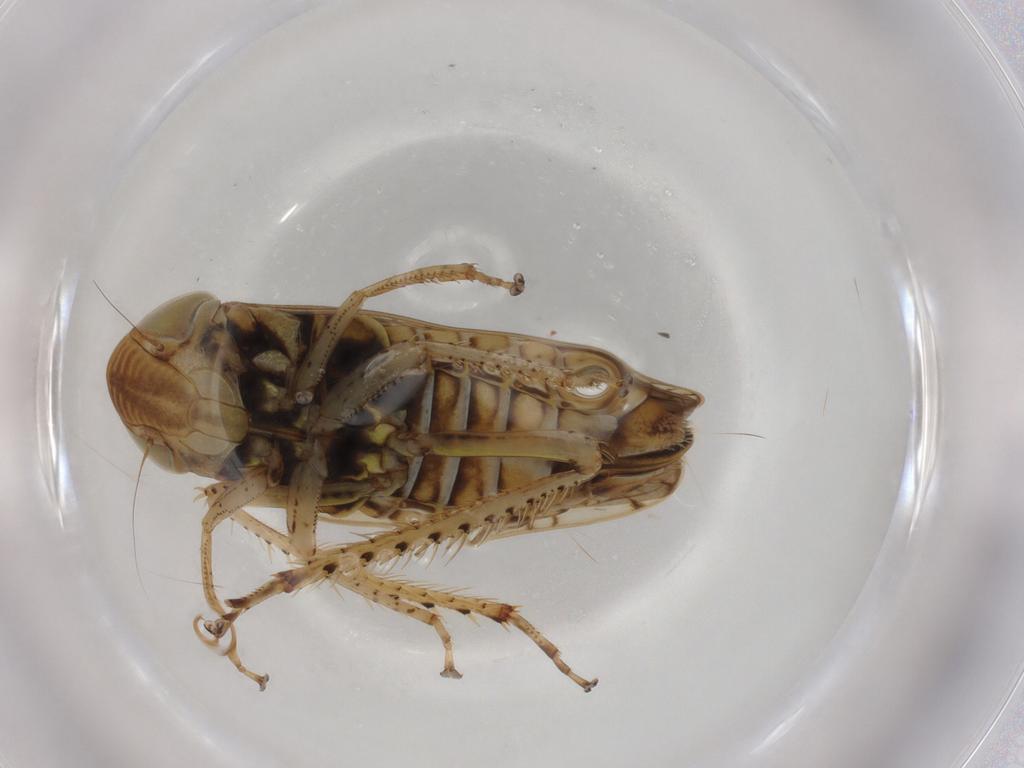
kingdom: Animalia
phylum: Arthropoda
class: Insecta
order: Hemiptera
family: Cicadellidae
